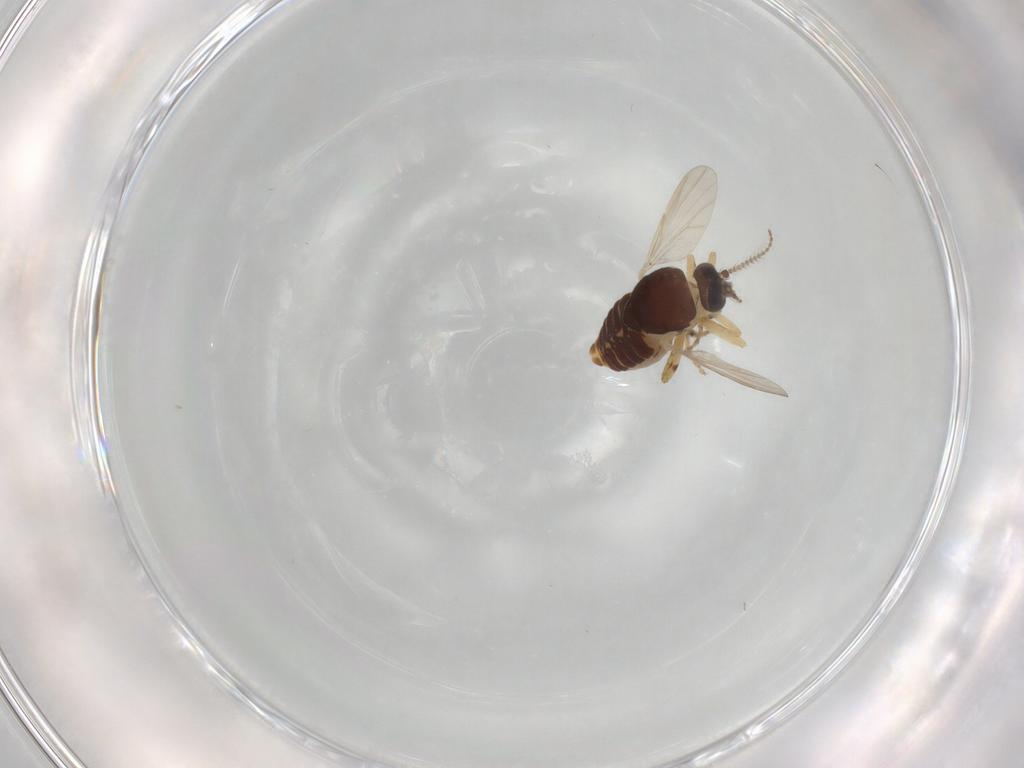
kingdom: Animalia
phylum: Arthropoda
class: Insecta
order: Diptera
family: Ceratopogonidae
